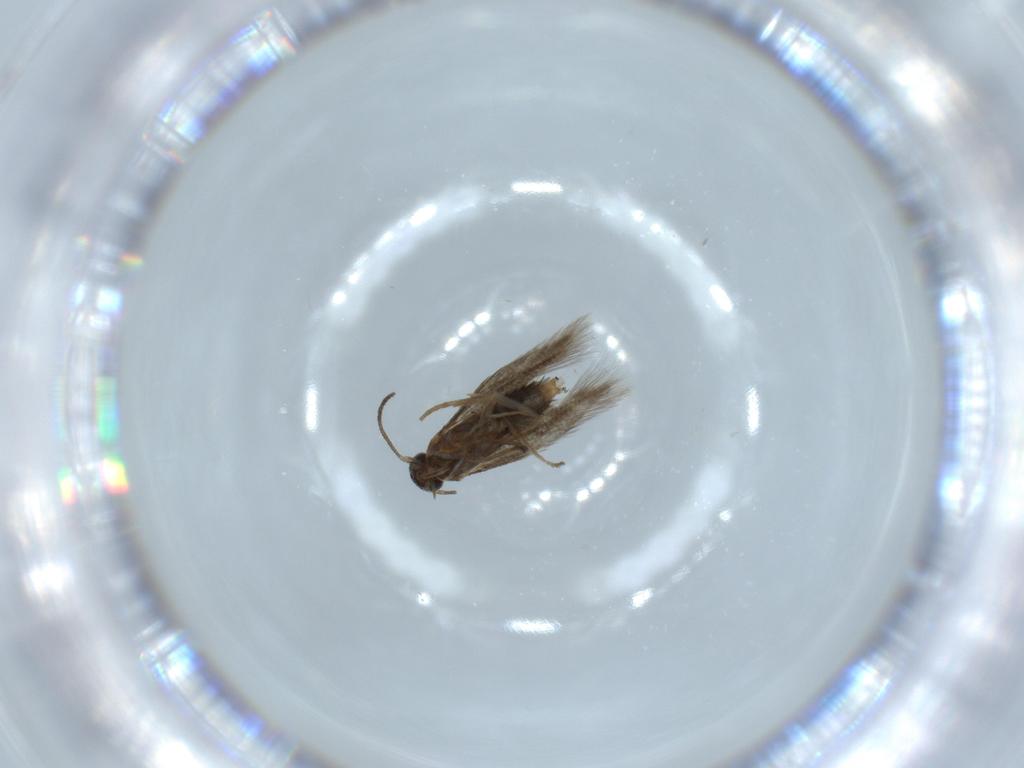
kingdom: Animalia
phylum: Arthropoda
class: Insecta
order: Lepidoptera
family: Heliozelidae
